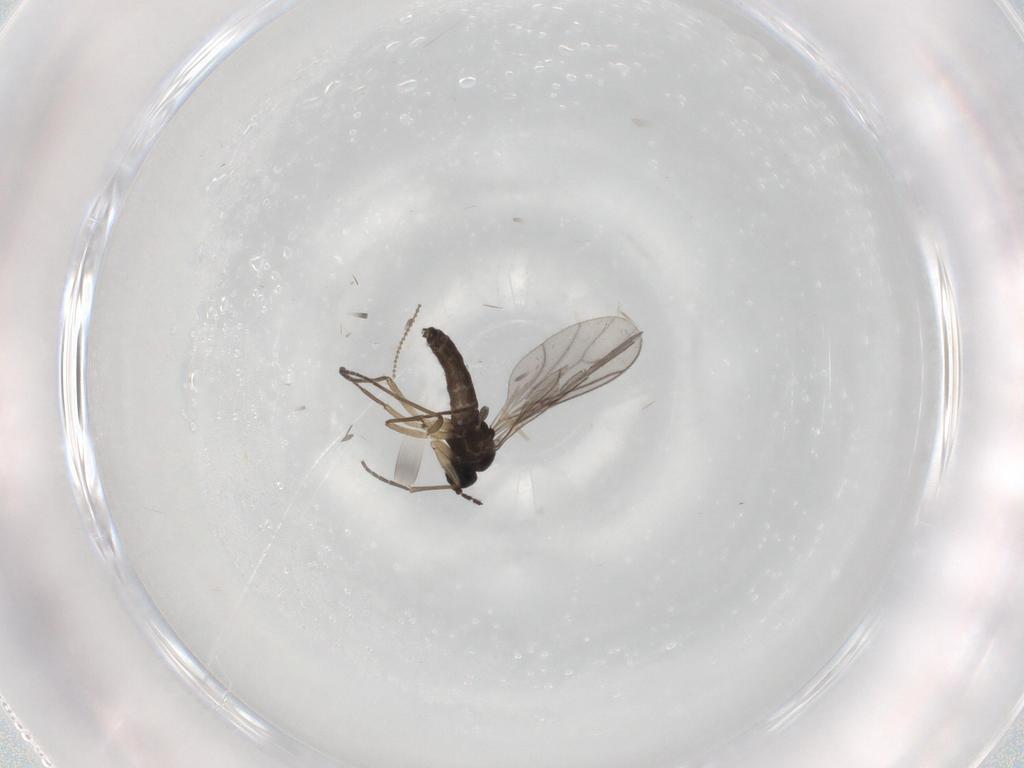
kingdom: Animalia
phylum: Arthropoda
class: Insecta
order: Diptera
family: Sciaridae
